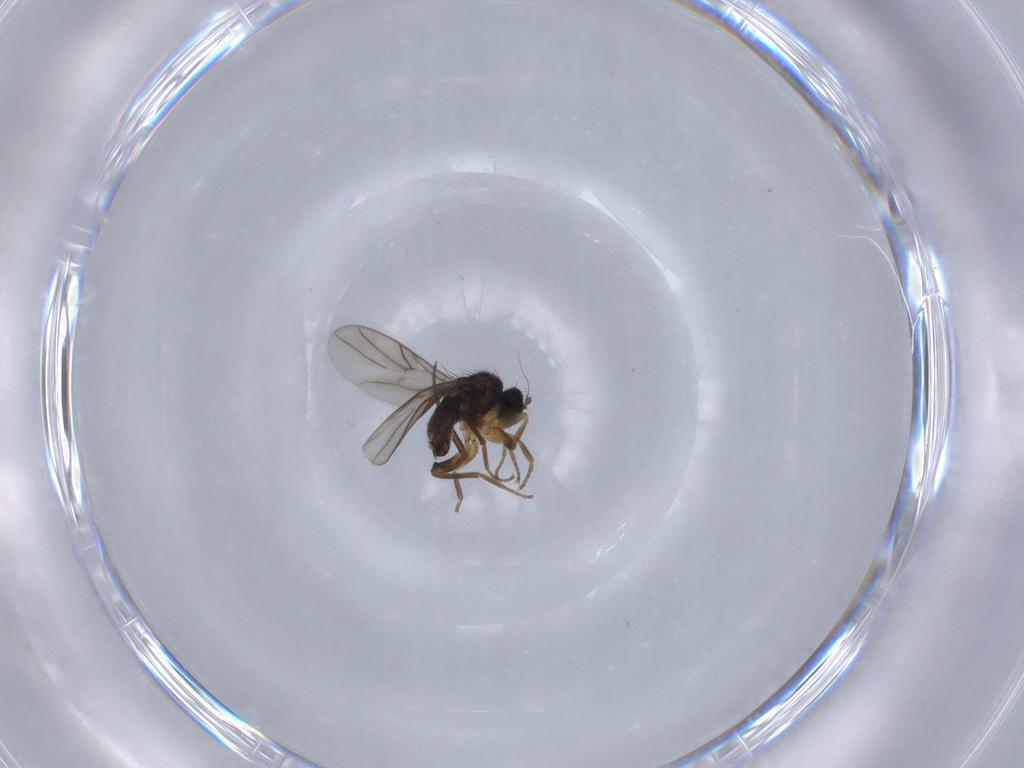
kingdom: Animalia
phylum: Arthropoda
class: Insecta
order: Diptera
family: Hybotidae
